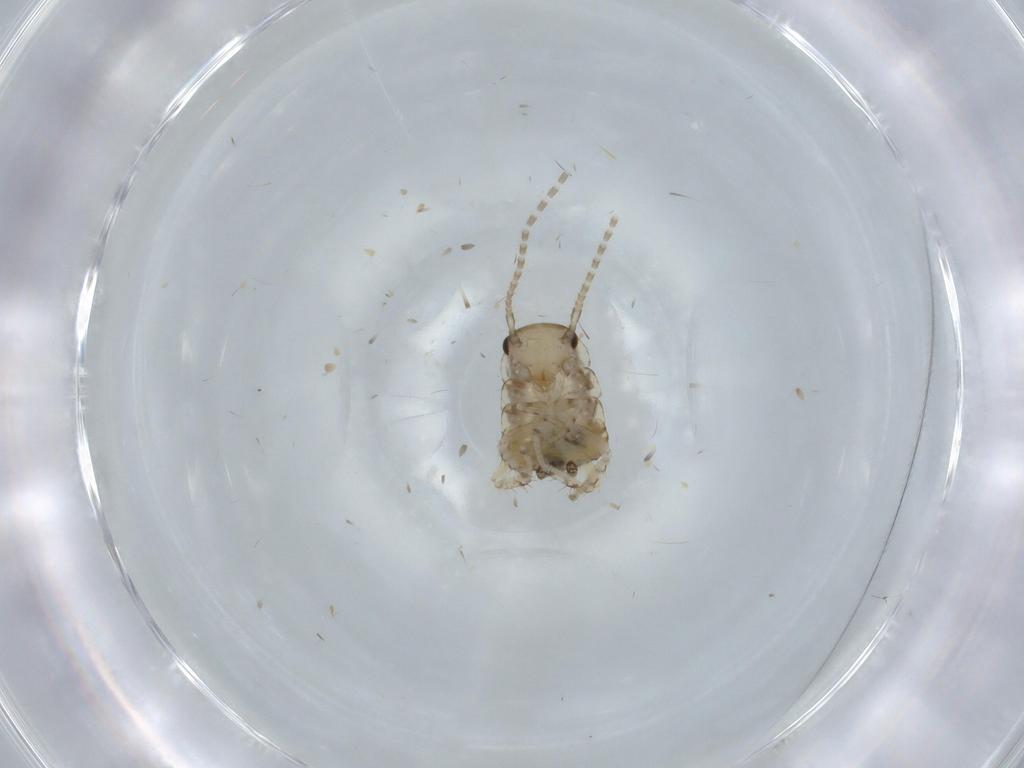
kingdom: Animalia
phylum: Arthropoda
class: Insecta
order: Blattodea
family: Ectobiidae
